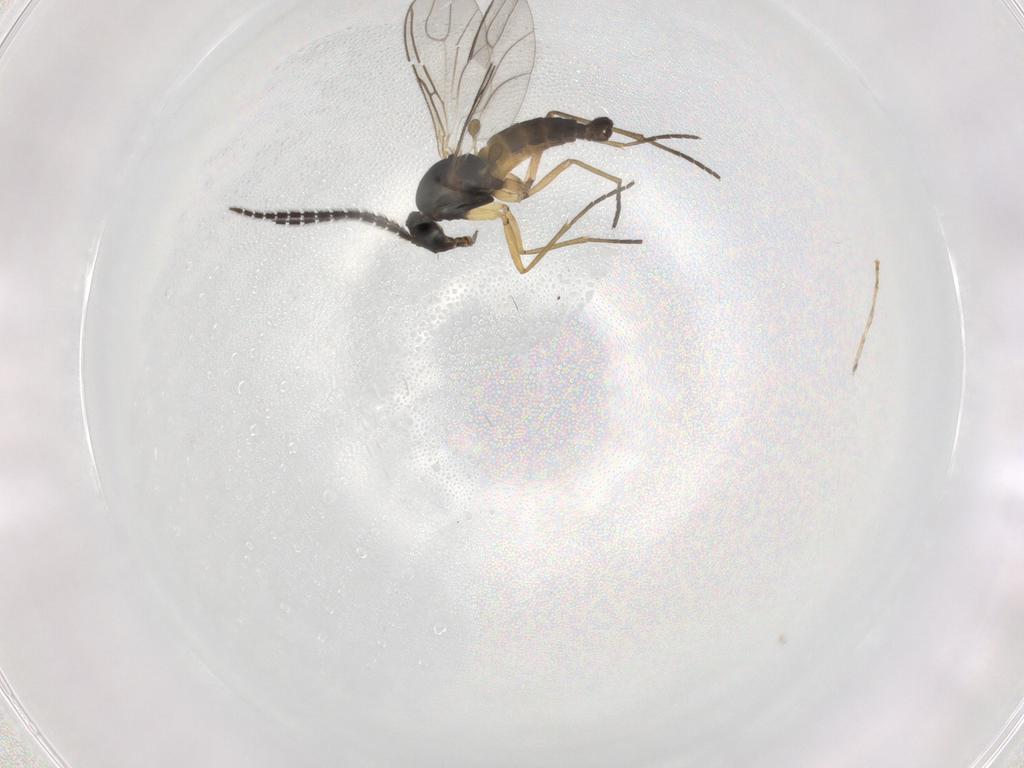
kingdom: Animalia
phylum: Arthropoda
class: Insecta
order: Diptera
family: Sciaridae
